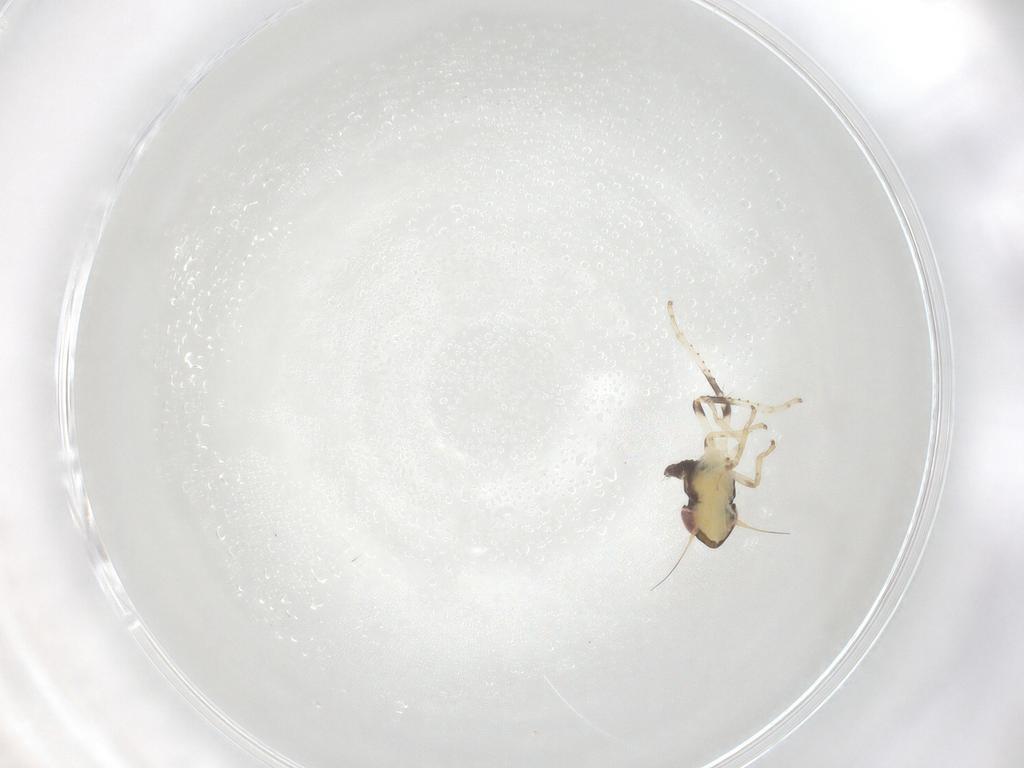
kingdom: Animalia
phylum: Arthropoda
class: Insecta
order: Hemiptera
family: Cicadellidae
